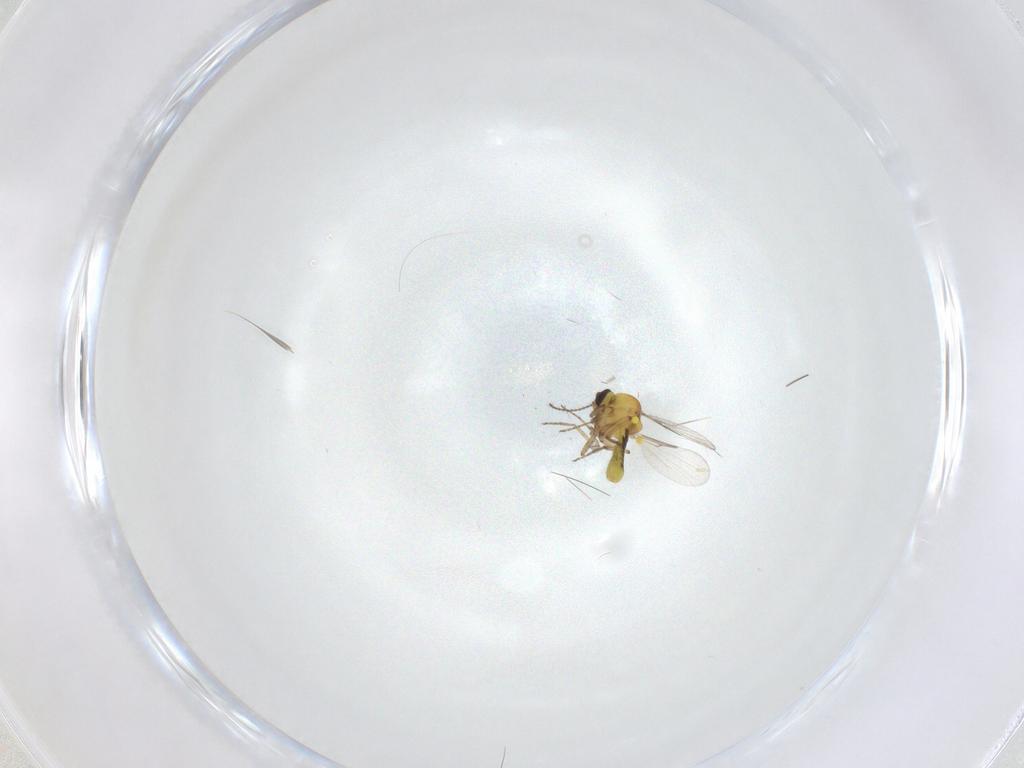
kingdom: Animalia
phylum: Arthropoda
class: Insecta
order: Diptera
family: Ceratopogonidae
